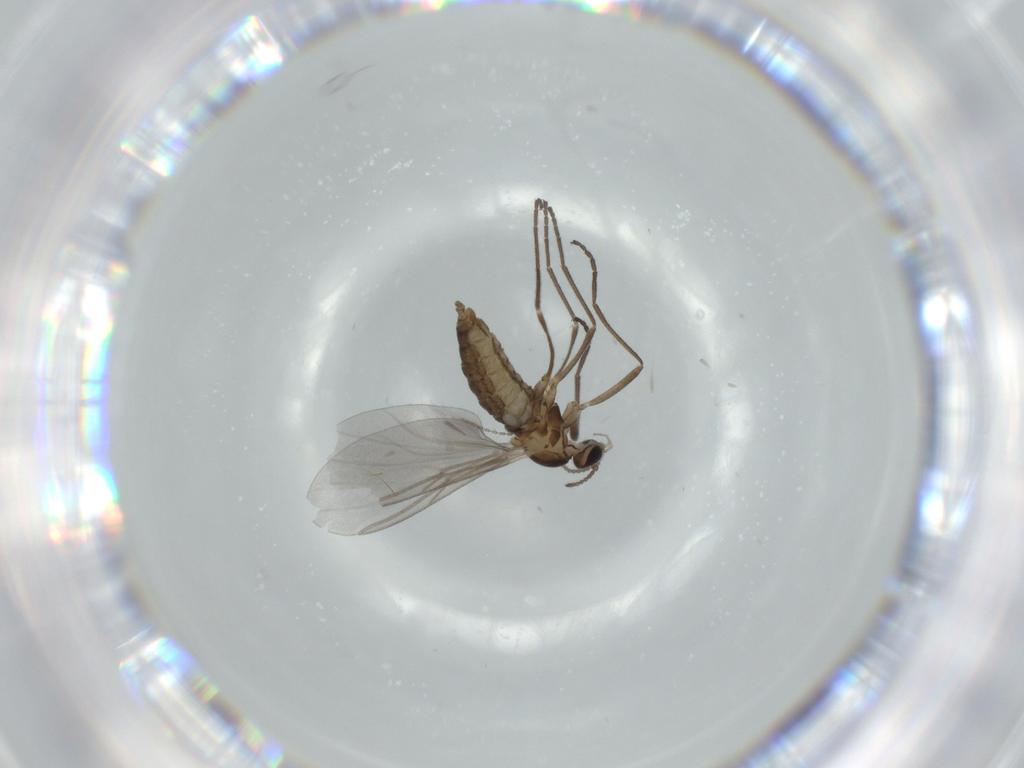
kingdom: Animalia
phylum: Arthropoda
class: Insecta
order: Diptera
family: Cecidomyiidae
